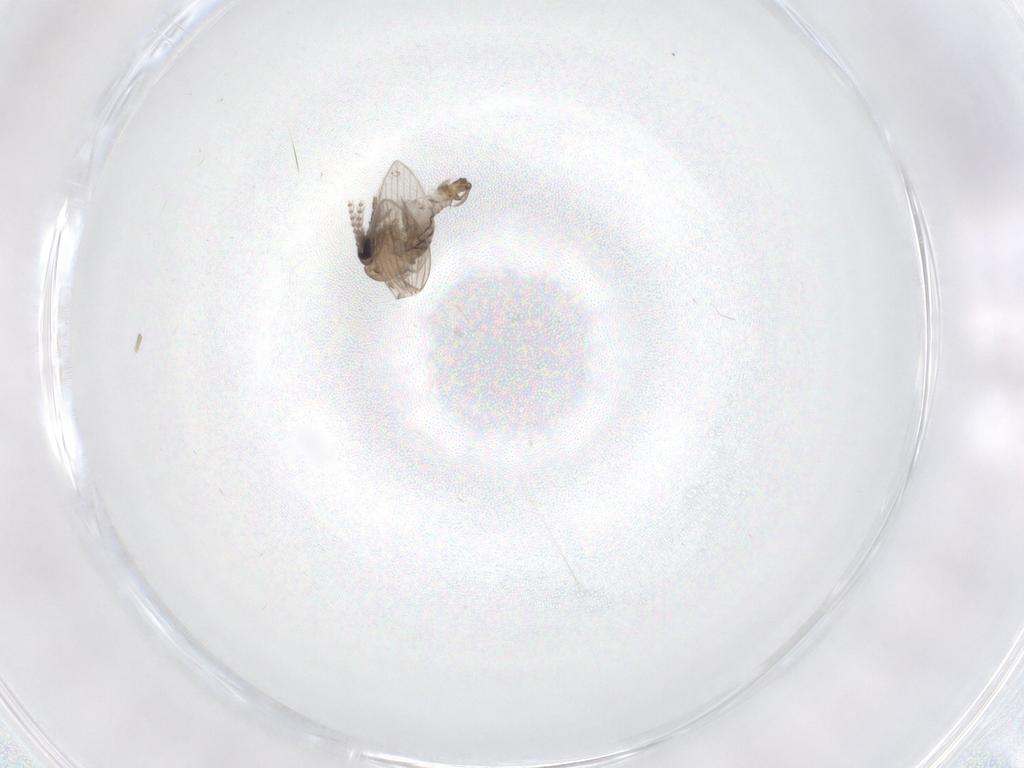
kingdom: Animalia
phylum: Arthropoda
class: Insecta
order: Diptera
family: Psychodidae
